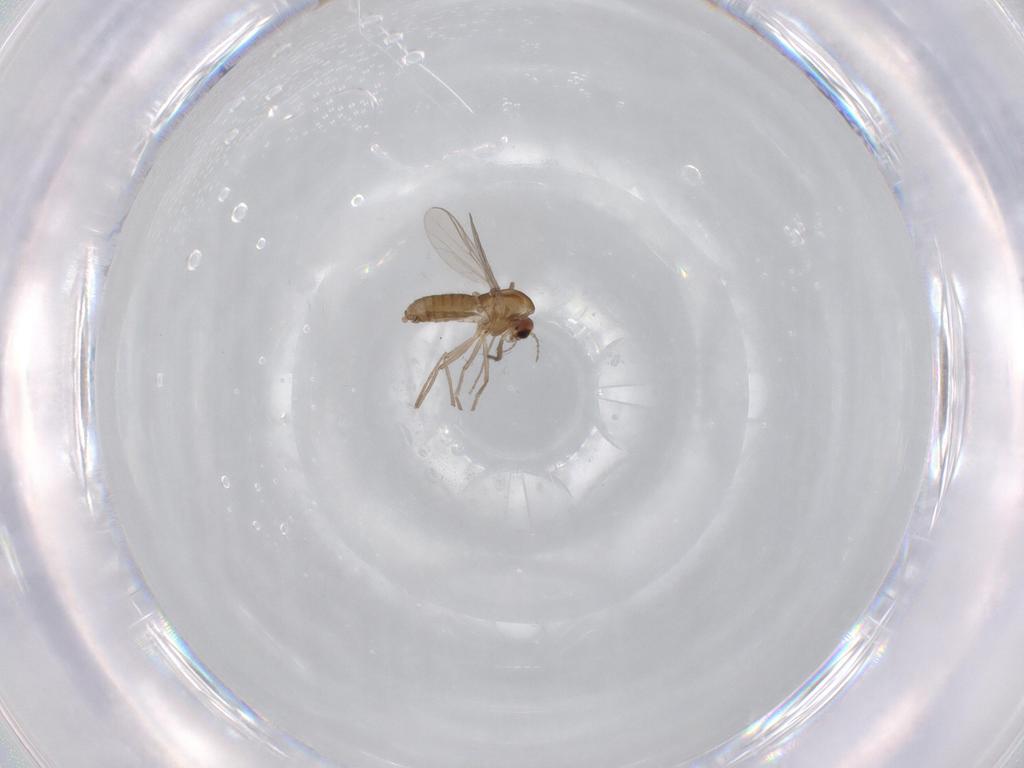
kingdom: Animalia
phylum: Arthropoda
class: Insecta
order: Diptera
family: Chironomidae
